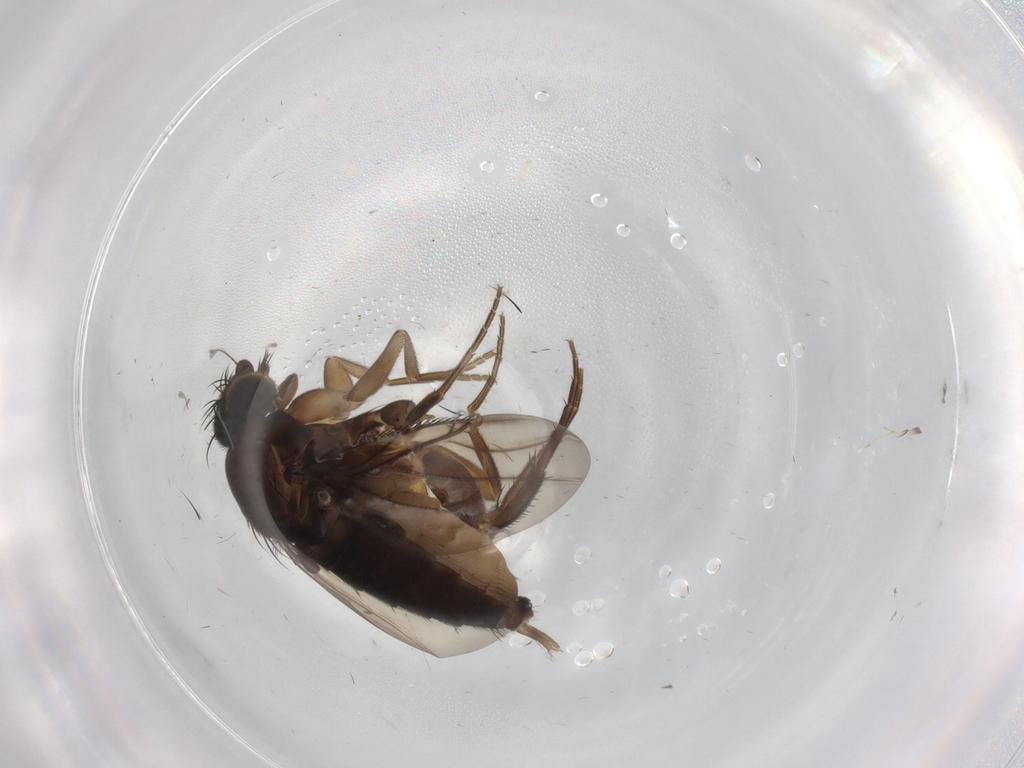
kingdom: Animalia
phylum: Arthropoda
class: Insecta
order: Diptera
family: Phoridae
